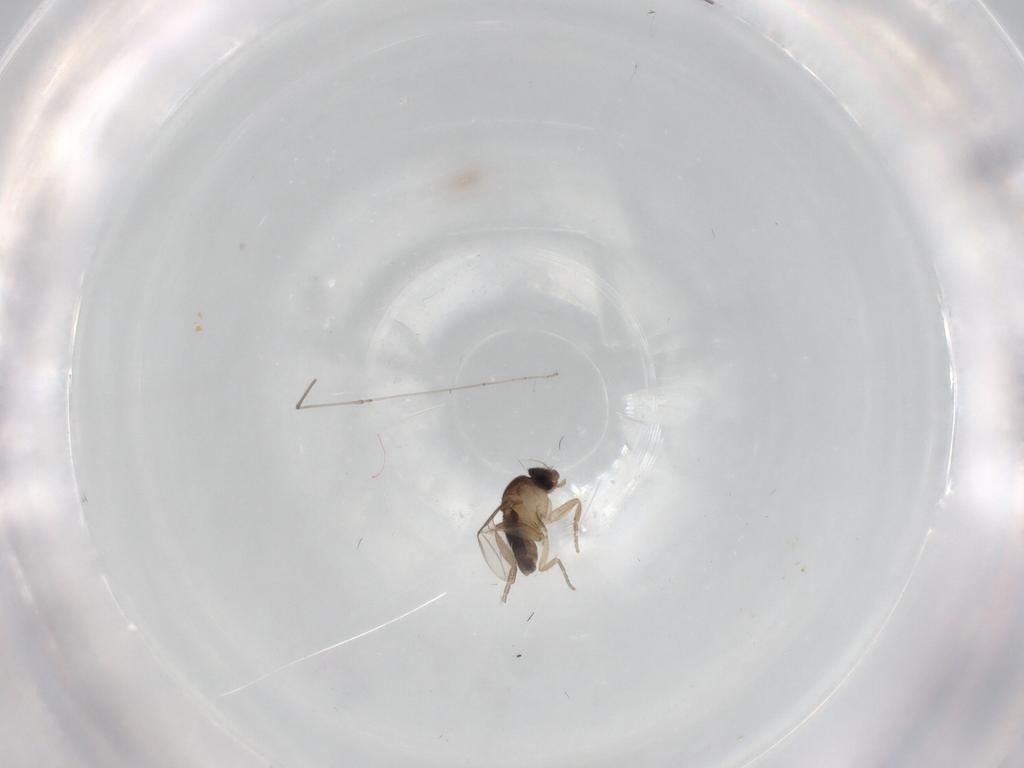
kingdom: Animalia
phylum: Arthropoda
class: Insecta
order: Diptera
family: Phoridae
